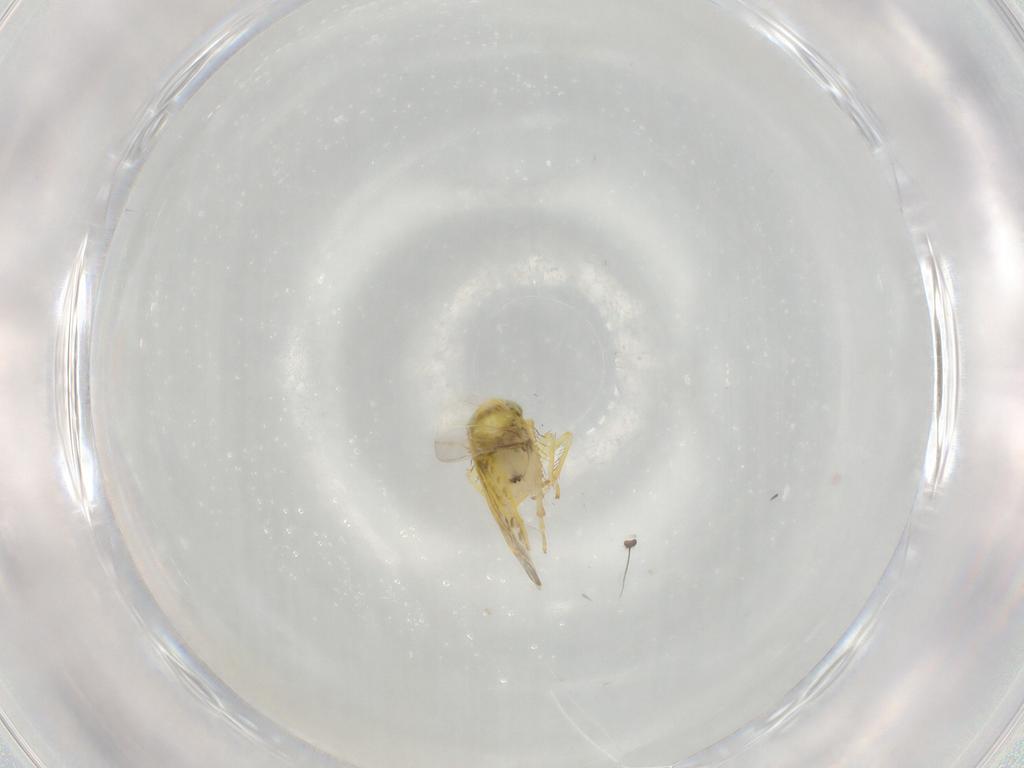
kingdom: Animalia
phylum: Arthropoda
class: Insecta
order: Hemiptera
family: Cicadellidae
